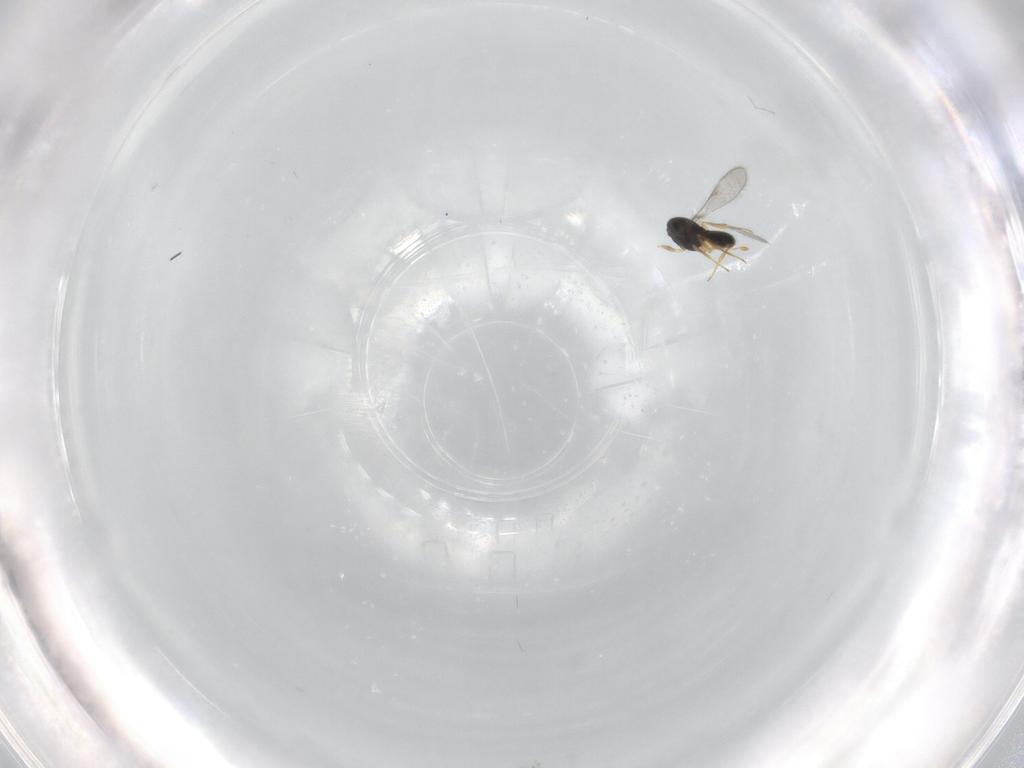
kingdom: Animalia
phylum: Arthropoda
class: Insecta
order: Hymenoptera
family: Scelionidae
